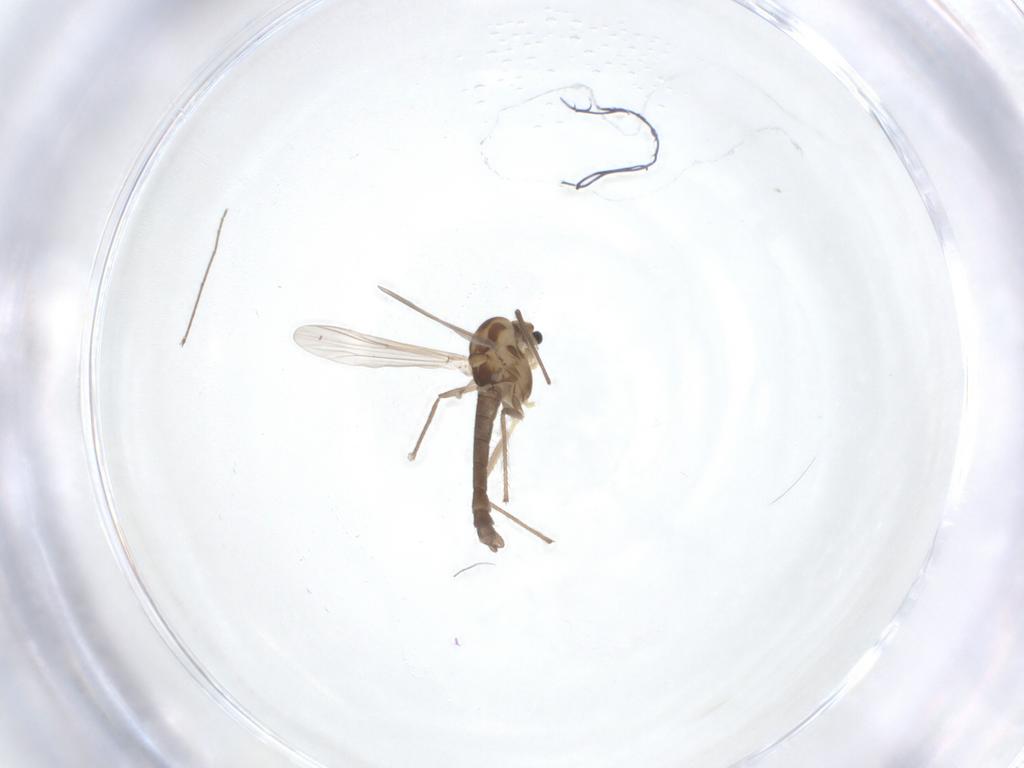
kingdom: Animalia
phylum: Arthropoda
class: Insecta
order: Diptera
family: Chironomidae
